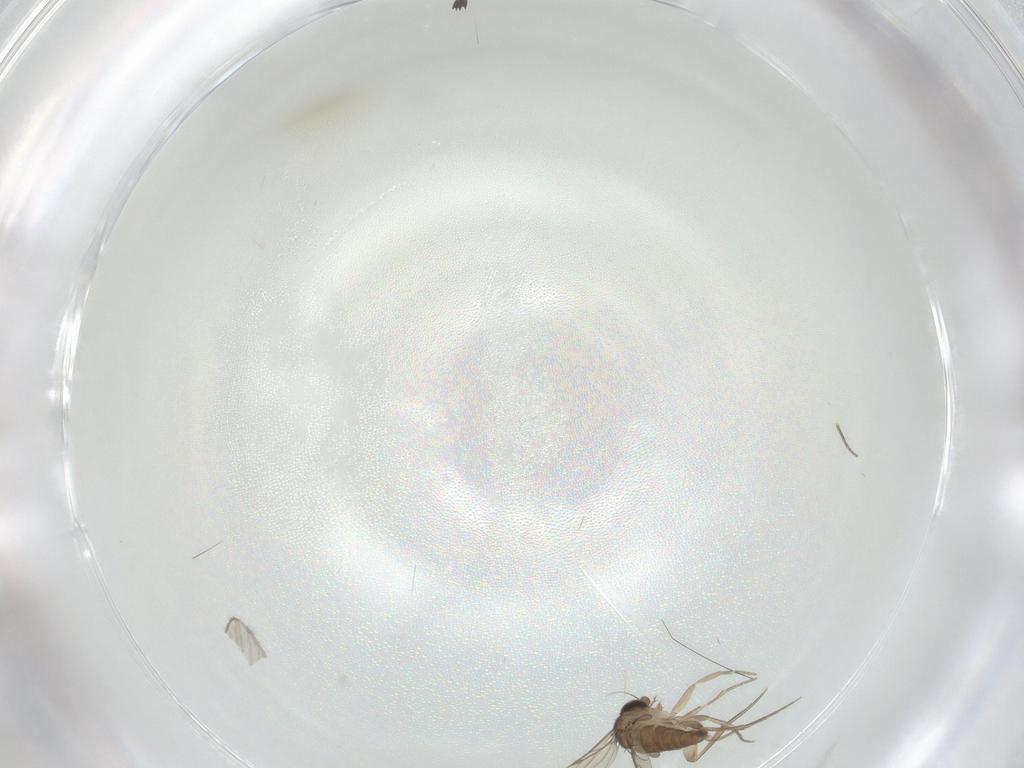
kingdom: Animalia
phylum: Arthropoda
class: Insecta
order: Diptera
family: Phoridae
